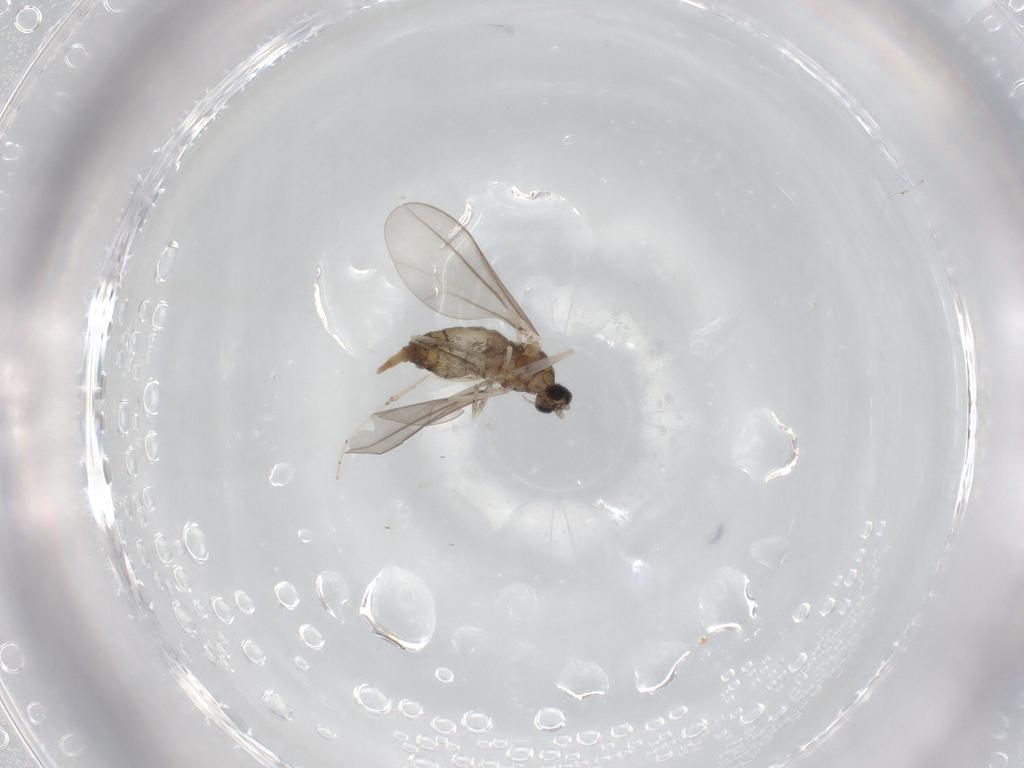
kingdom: Animalia
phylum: Arthropoda
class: Insecta
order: Diptera
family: Cecidomyiidae
